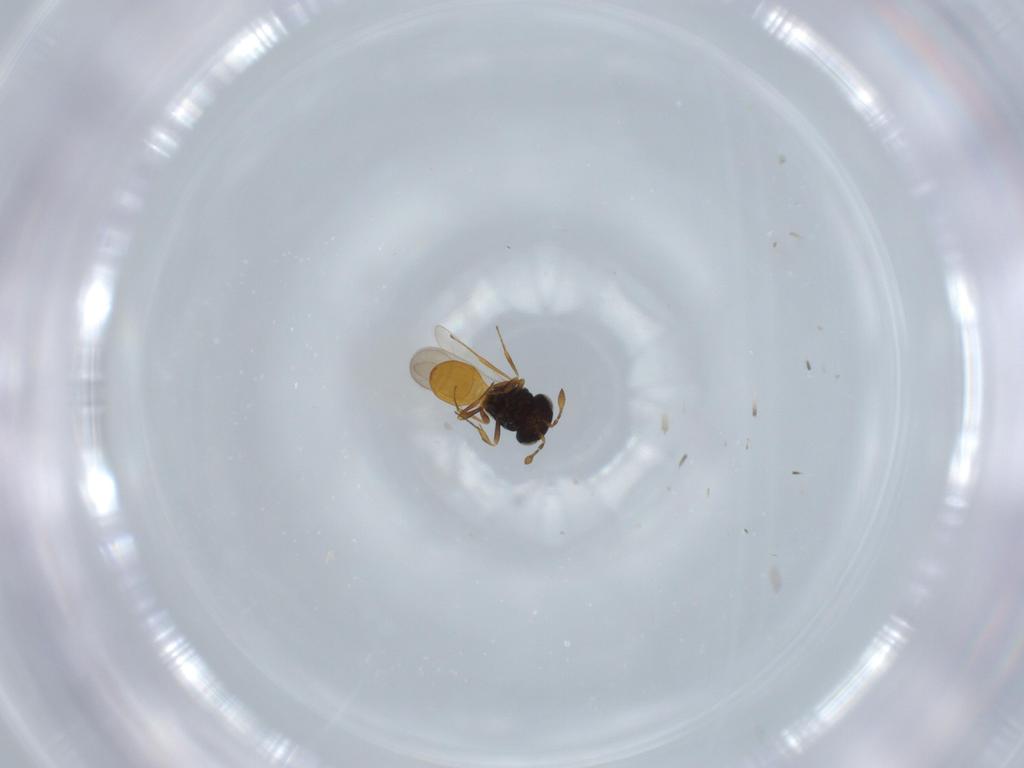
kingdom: Animalia
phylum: Arthropoda
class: Insecta
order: Hymenoptera
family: Scelionidae
